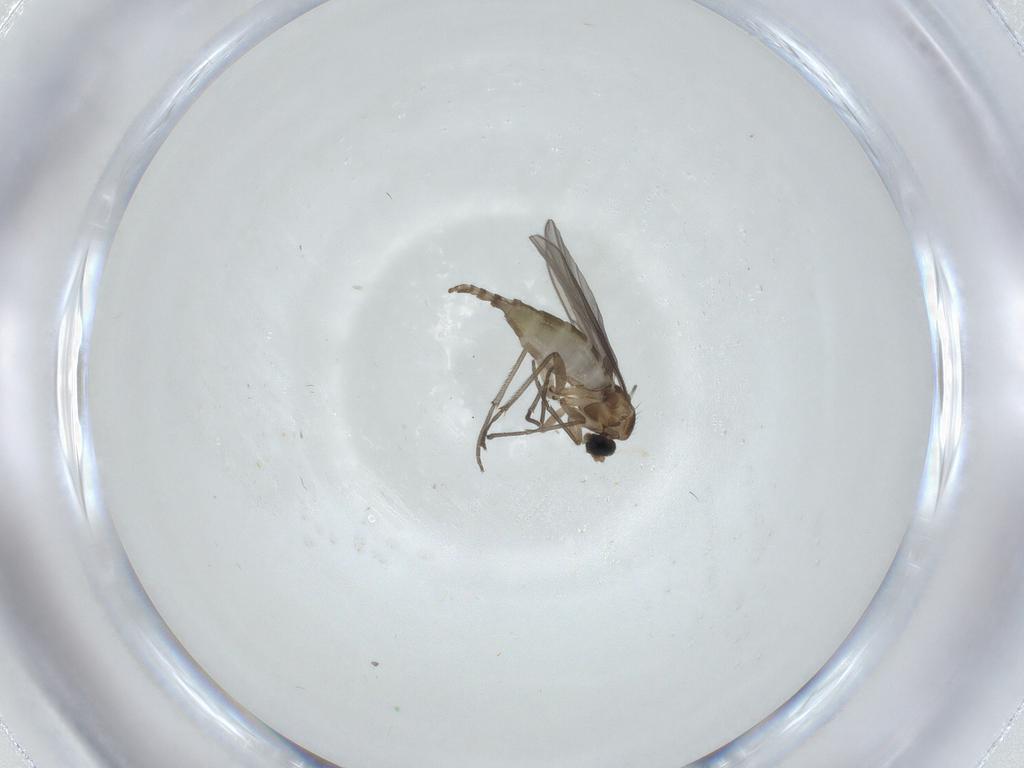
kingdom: Animalia
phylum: Arthropoda
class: Insecta
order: Diptera
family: Sciaridae
